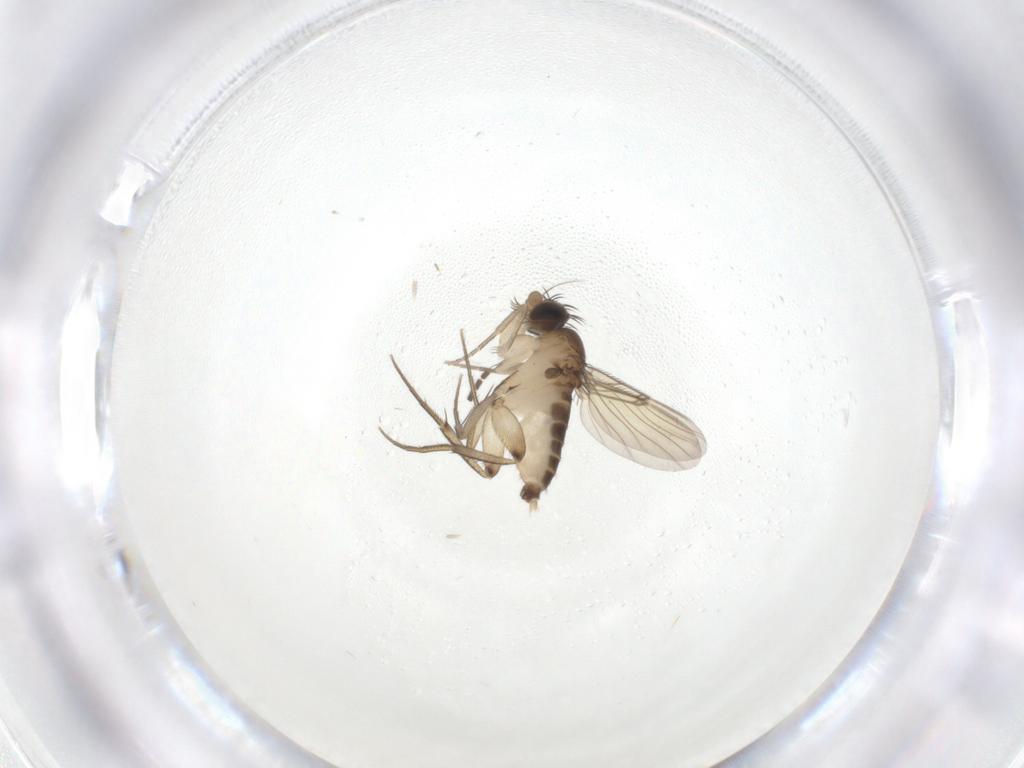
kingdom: Animalia
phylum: Arthropoda
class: Insecta
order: Diptera
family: Phoridae
